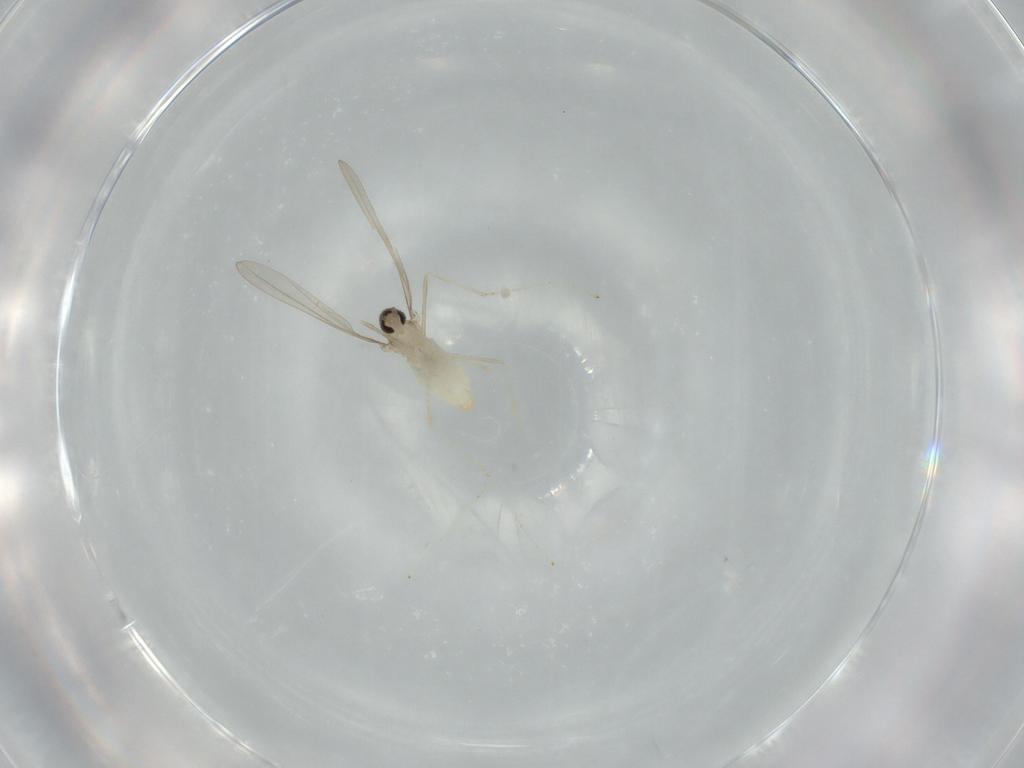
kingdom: Animalia
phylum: Arthropoda
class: Insecta
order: Diptera
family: Cecidomyiidae
